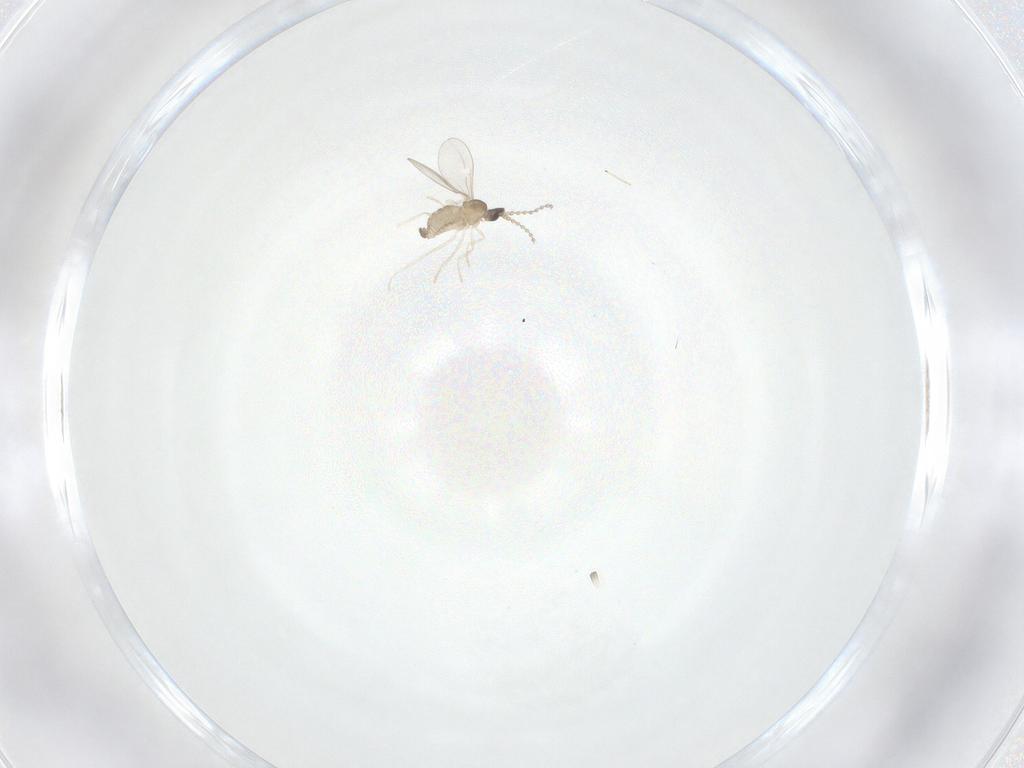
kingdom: Animalia
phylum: Arthropoda
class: Insecta
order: Diptera
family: Cecidomyiidae
